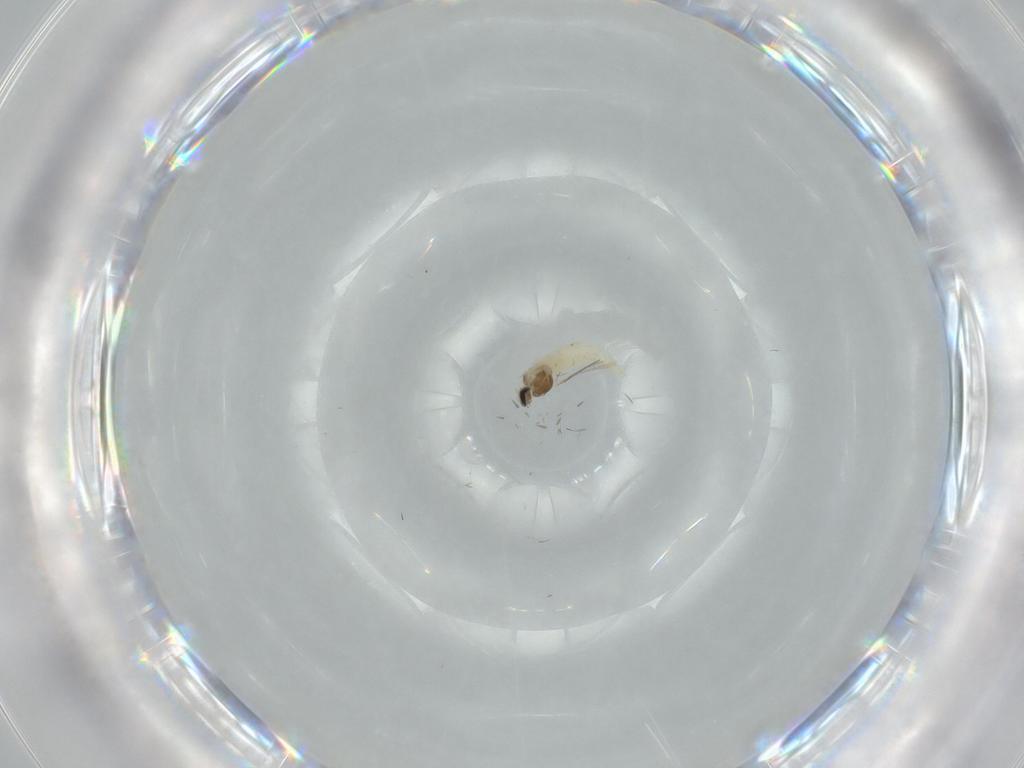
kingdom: Animalia
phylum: Arthropoda
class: Insecta
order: Diptera
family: Cecidomyiidae
